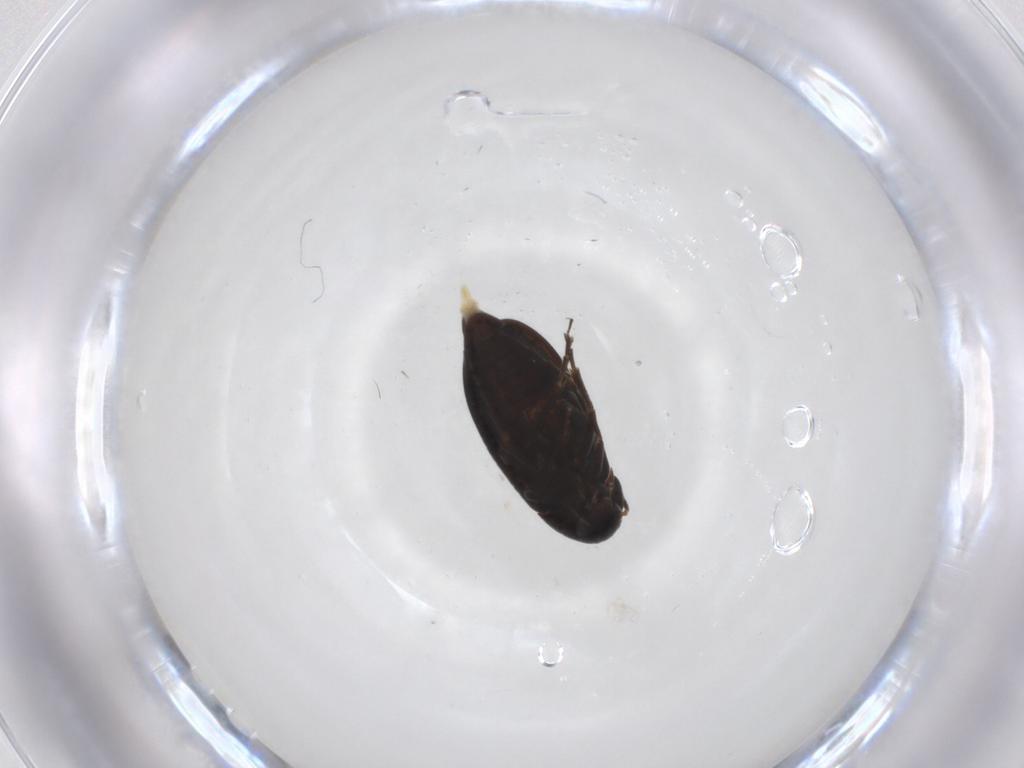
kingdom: Animalia
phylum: Arthropoda
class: Insecta
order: Coleoptera
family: Scraptiidae
